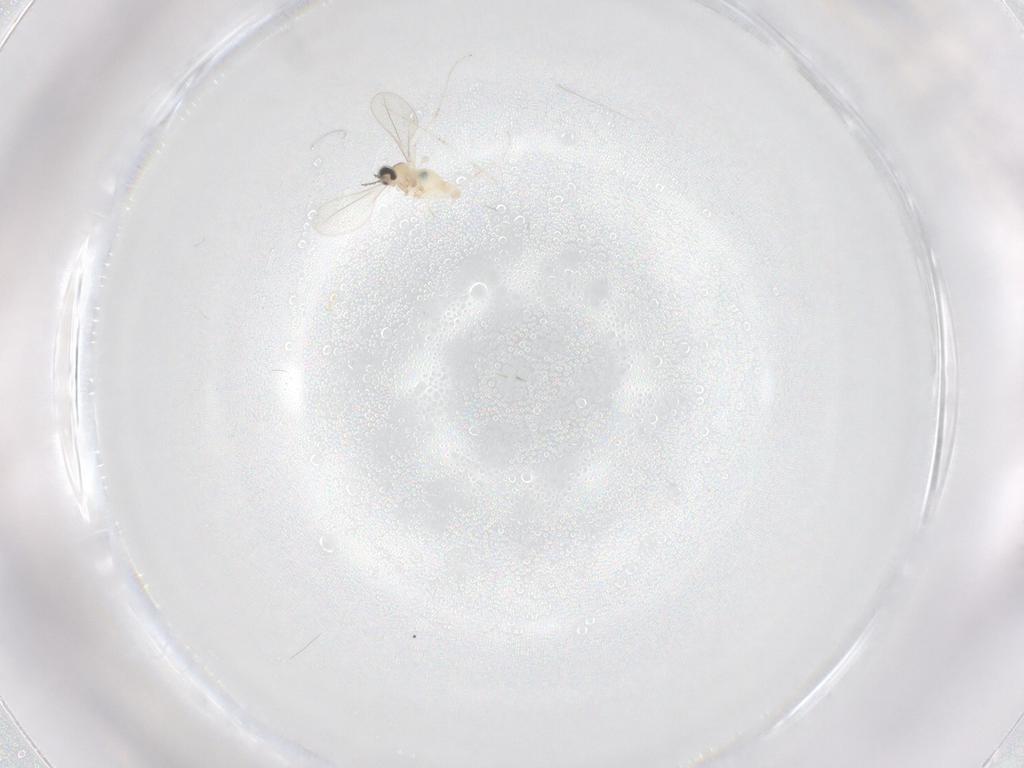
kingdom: Animalia
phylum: Arthropoda
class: Insecta
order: Diptera
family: Cecidomyiidae
